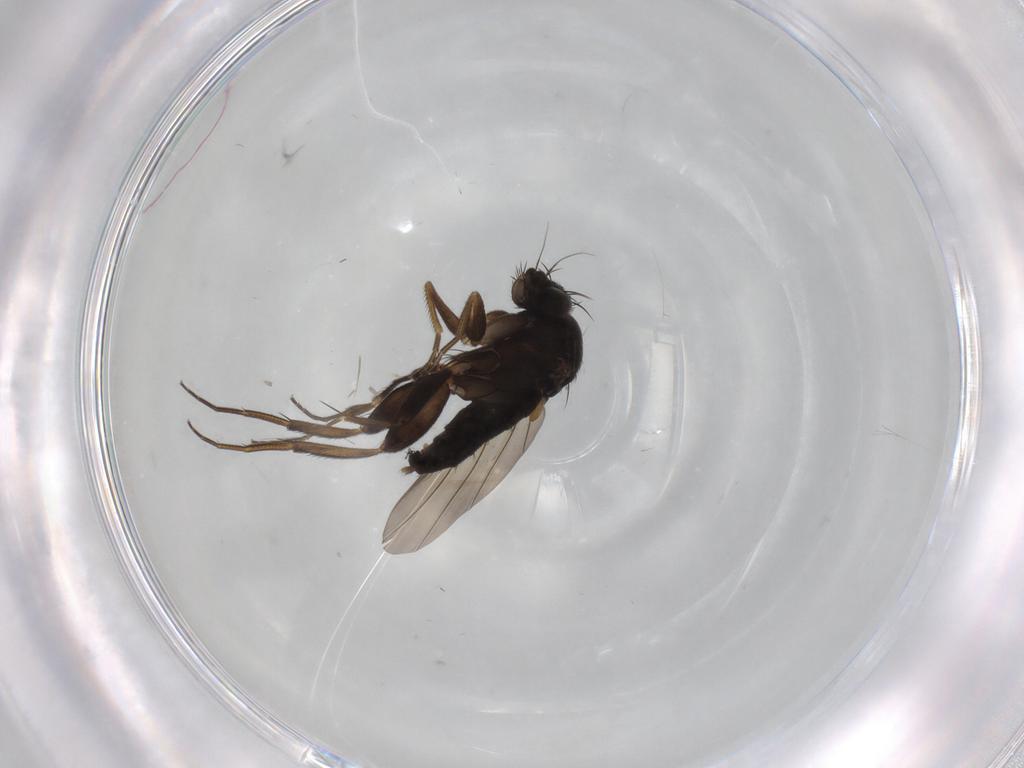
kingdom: Animalia
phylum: Arthropoda
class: Insecta
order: Diptera
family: Phoridae
